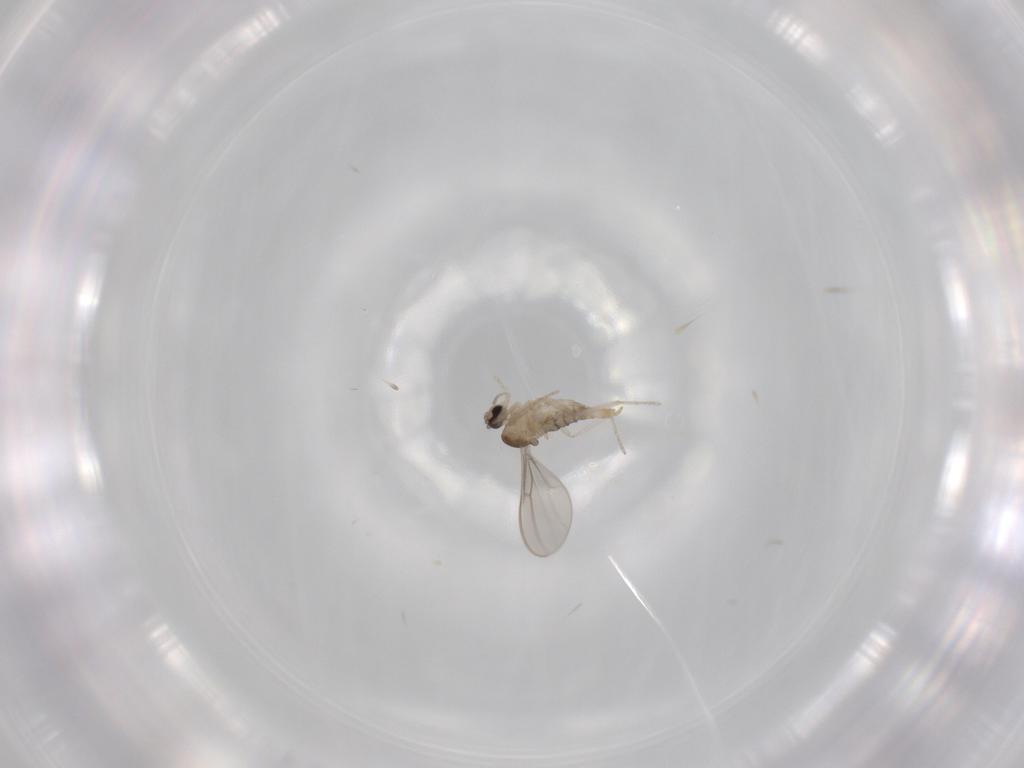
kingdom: Animalia
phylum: Arthropoda
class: Insecta
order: Diptera
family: Cecidomyiidae
